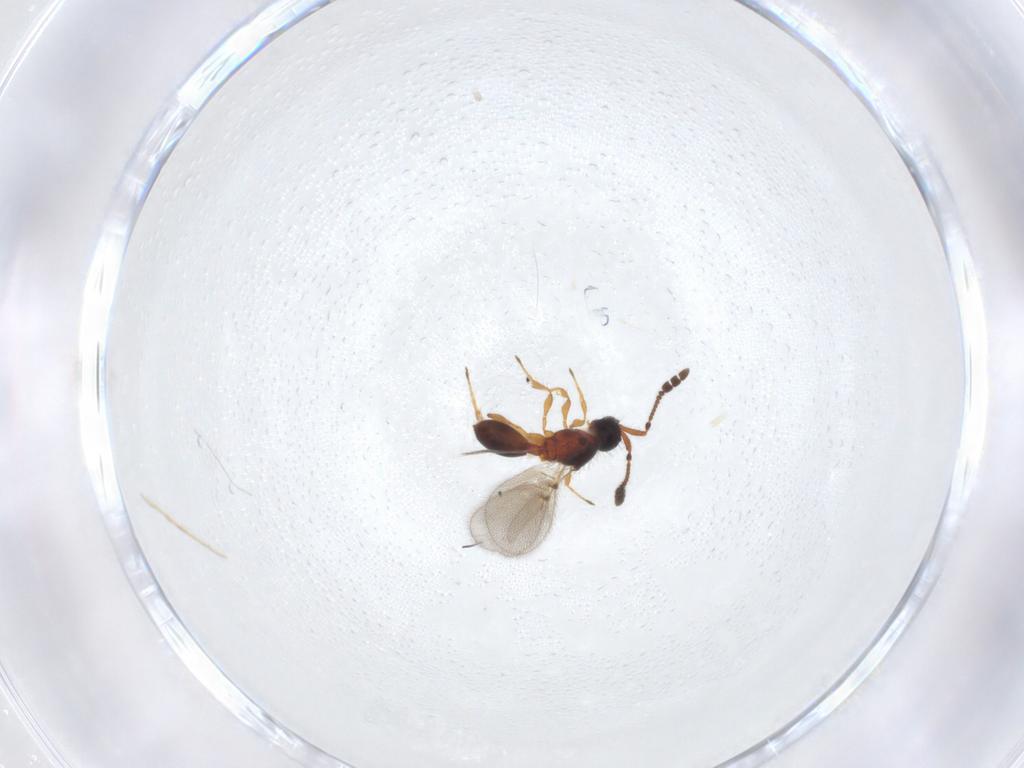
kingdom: Animalia
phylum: Arthropoda
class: Insecta
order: Hymenoptera
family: Diapriidae
